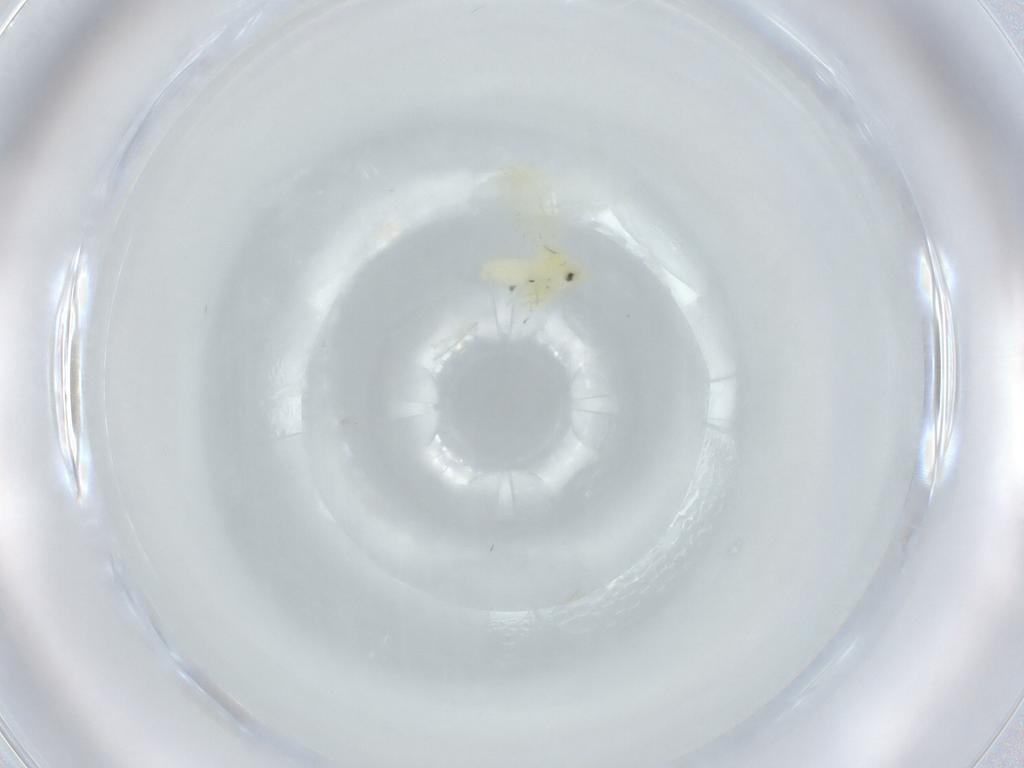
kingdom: Animalia
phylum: Arthropoda
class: Insecta
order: Hemiptera
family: Aleyrodidae
